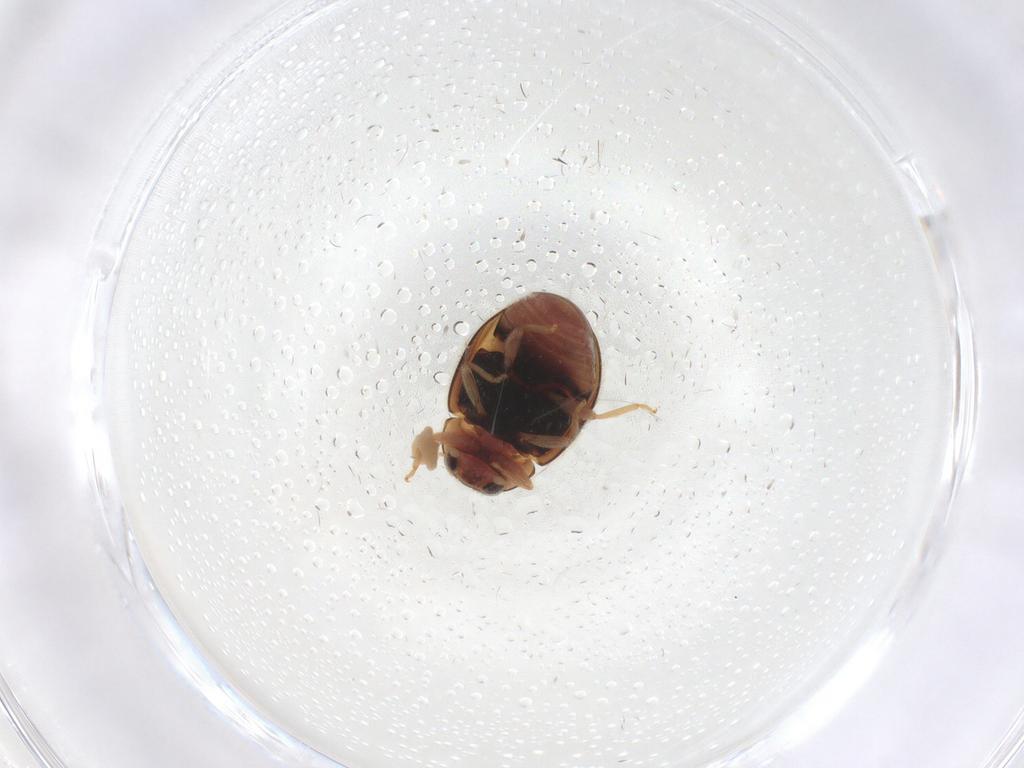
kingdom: Animalia
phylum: Arthropoda
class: Insecta
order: Coleoptera
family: Coccinellidae
